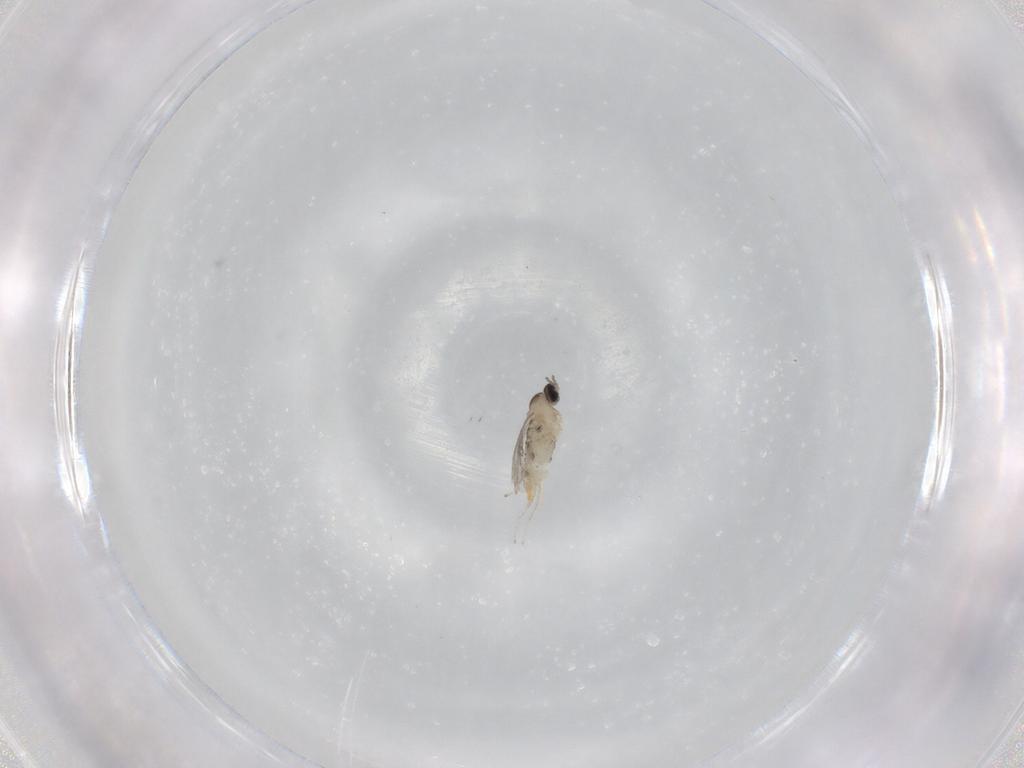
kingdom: Animalia
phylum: Arthropoda
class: Insecta
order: Diptera
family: Cecidomyiidae
